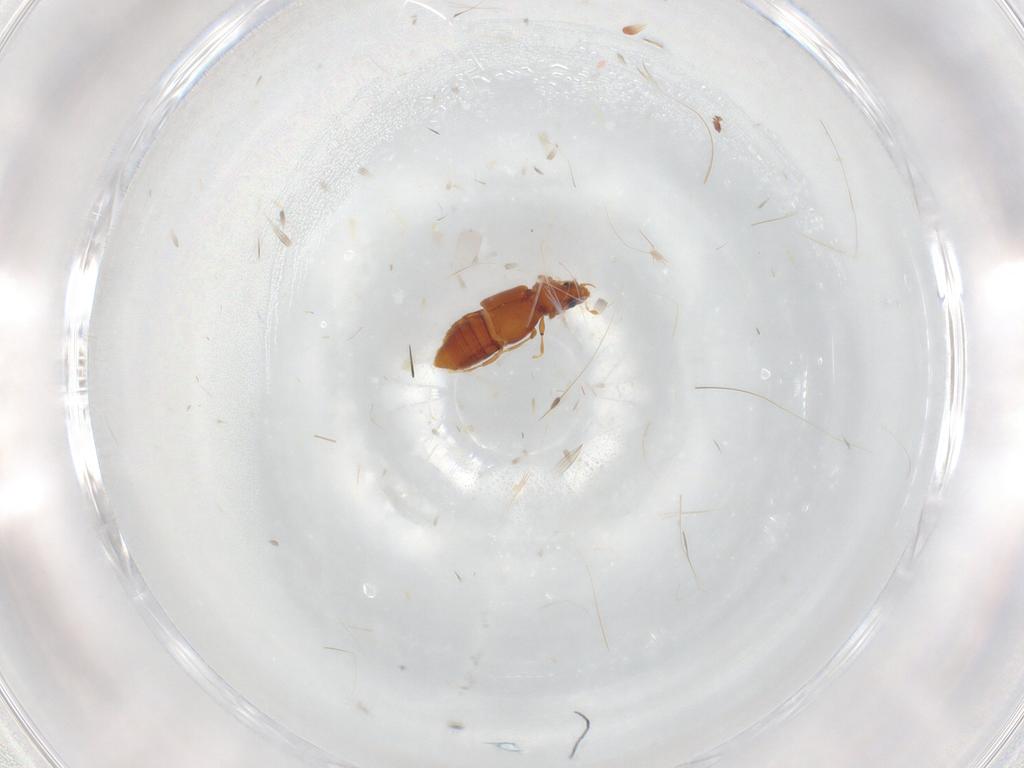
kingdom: Animalia
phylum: Arthropoda
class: Insecta
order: Coleoptera
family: Staphylinidae
